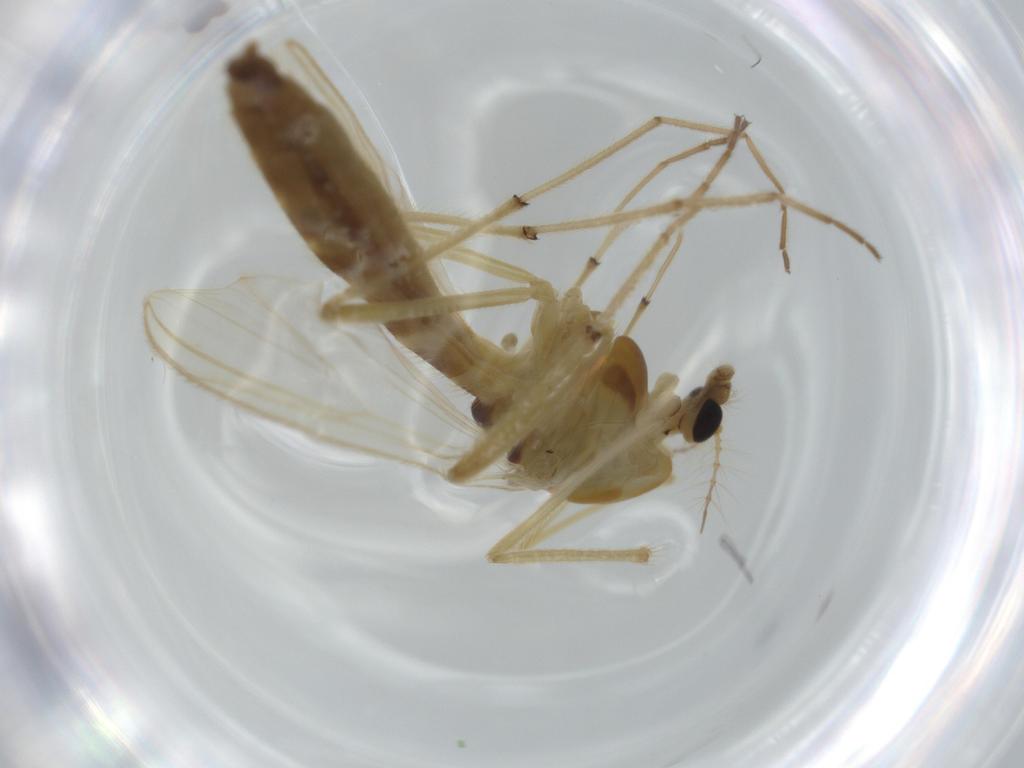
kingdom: Animalia
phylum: Arthropoda
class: Insecta
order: Diptera
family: Chironomidae
